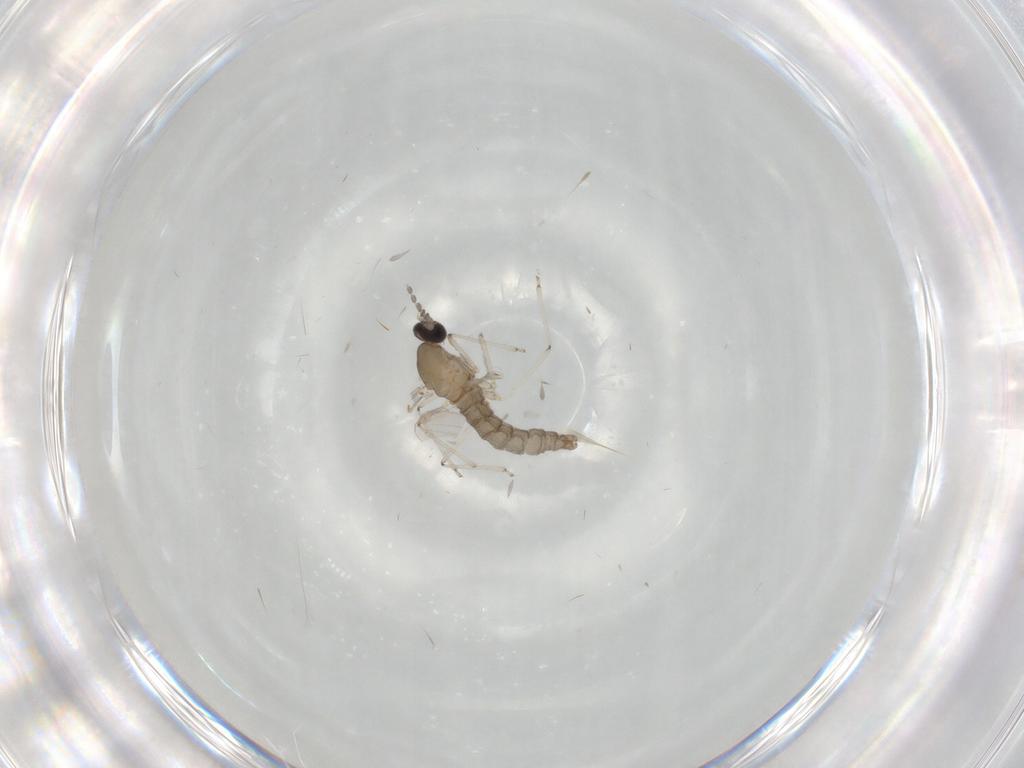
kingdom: Animalia
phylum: Arthropoda
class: Insecta
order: Diptera
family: Cecidomyiidae
